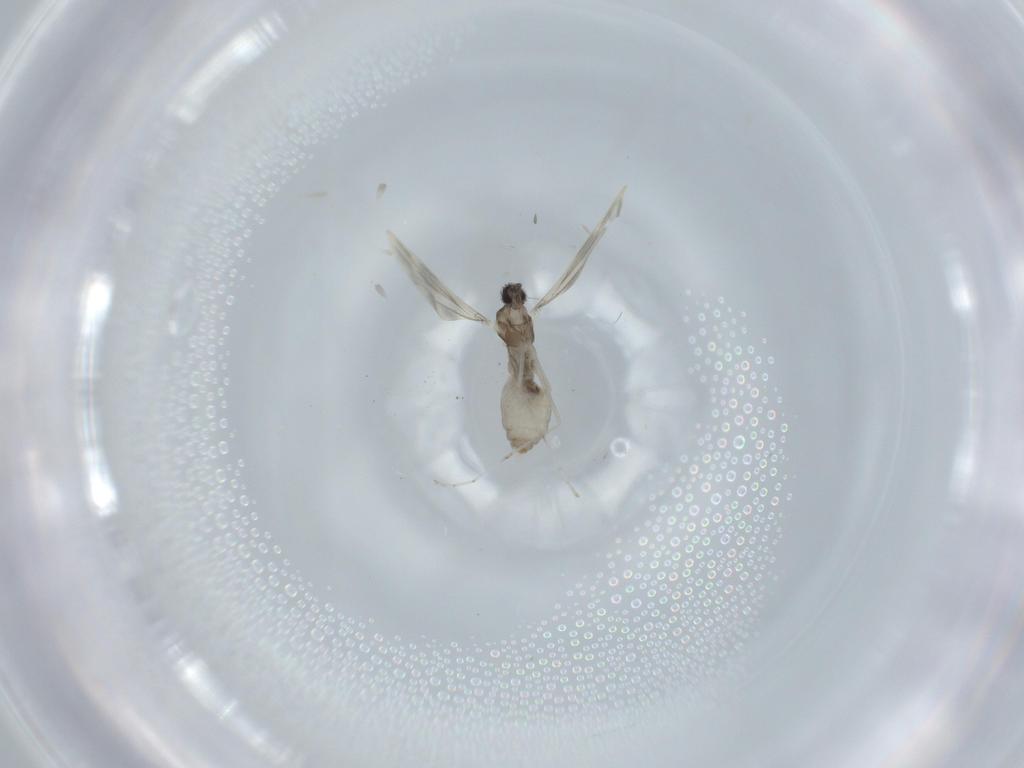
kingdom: Animalia
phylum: Arthropoda
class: Insecta
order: Diptera
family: Cecidomyiidae
